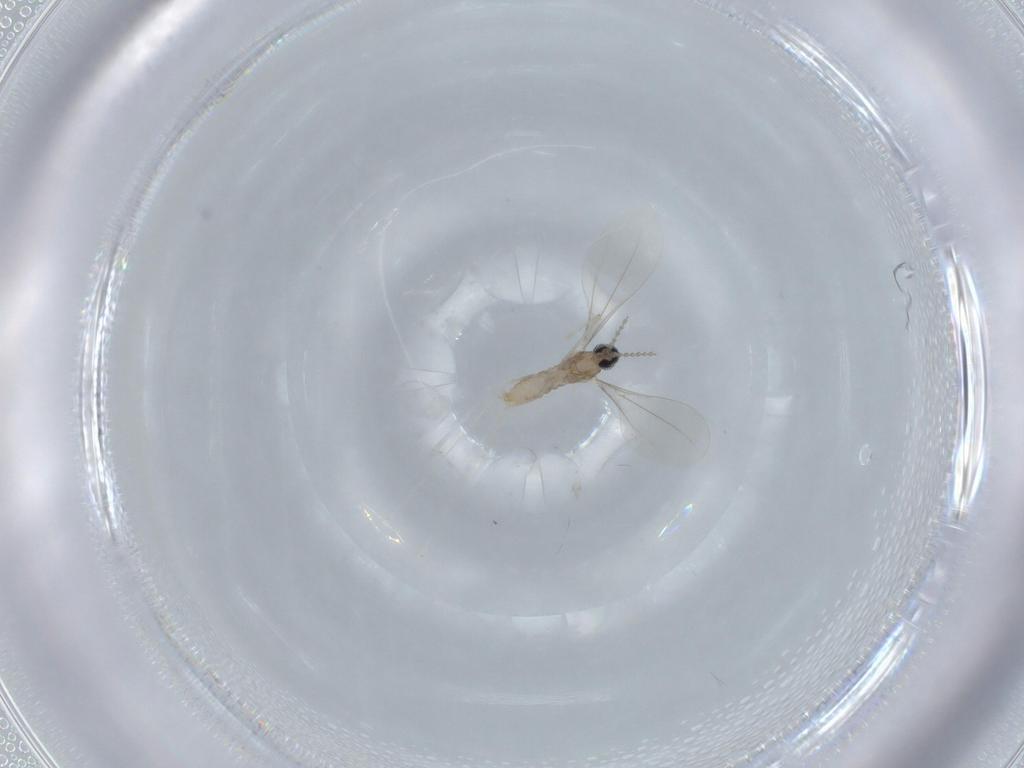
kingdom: Animalia
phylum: Arthropoda
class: Insecta
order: Diptera
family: Cecidomyiidae
